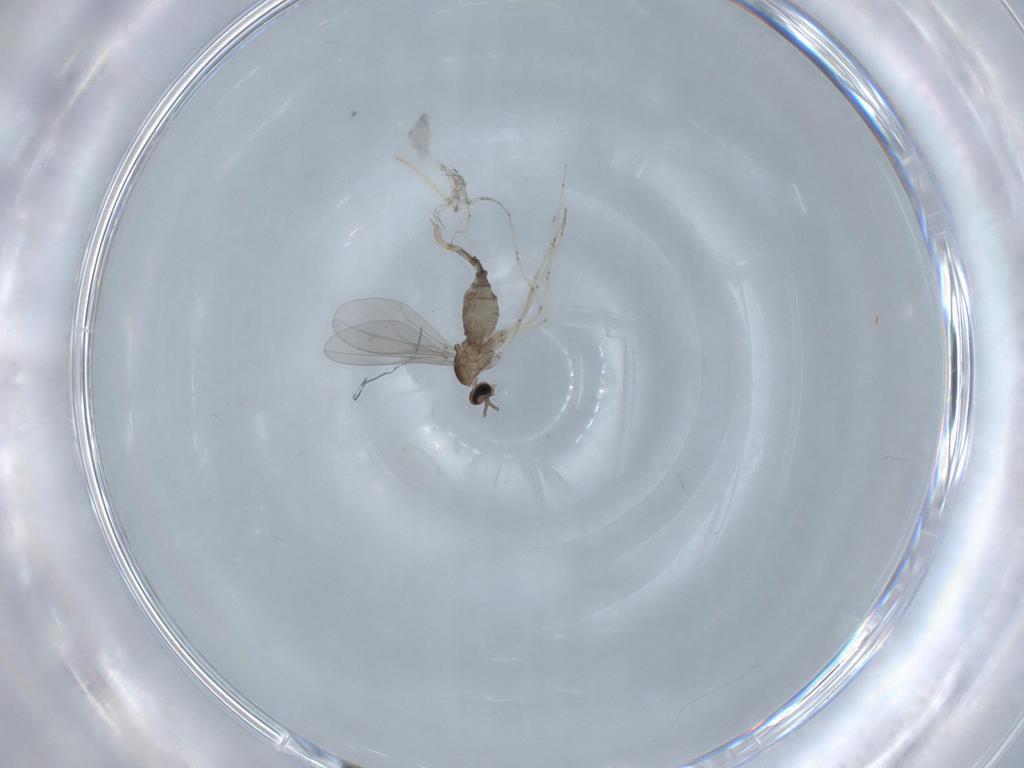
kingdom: Animalia
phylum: Arthropoda
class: Insecta
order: Diptera
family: Cecidomyiidae
